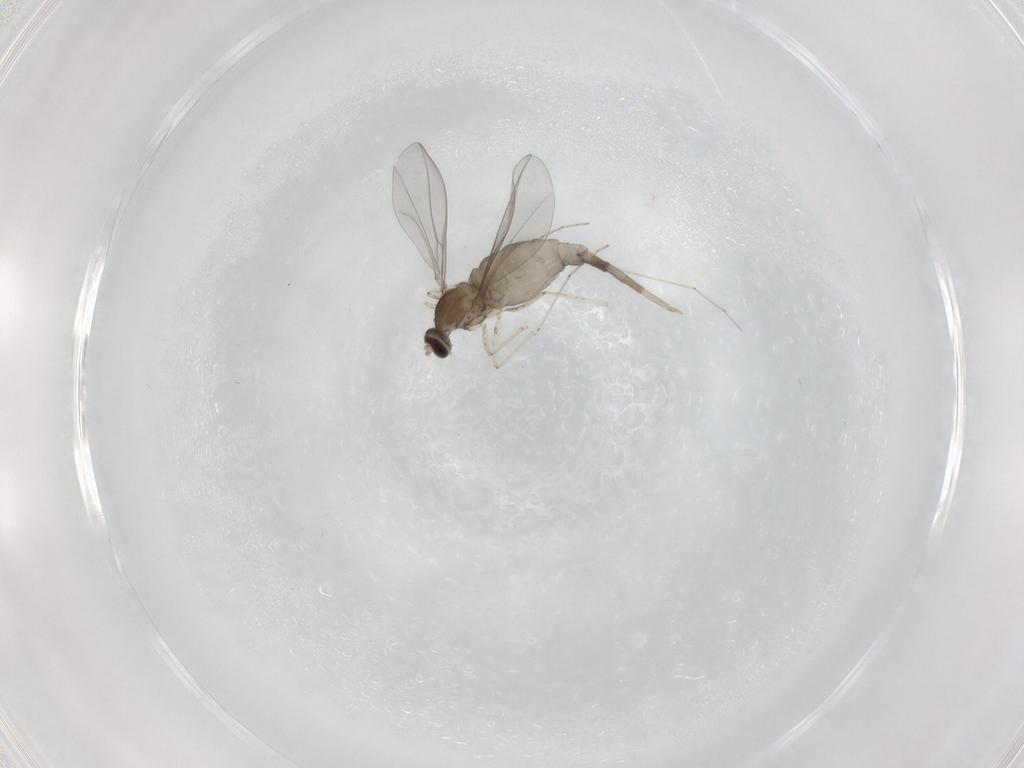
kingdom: Animalia
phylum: Arthropoda
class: Insecta
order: Diptera
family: Cecidomyiidae
